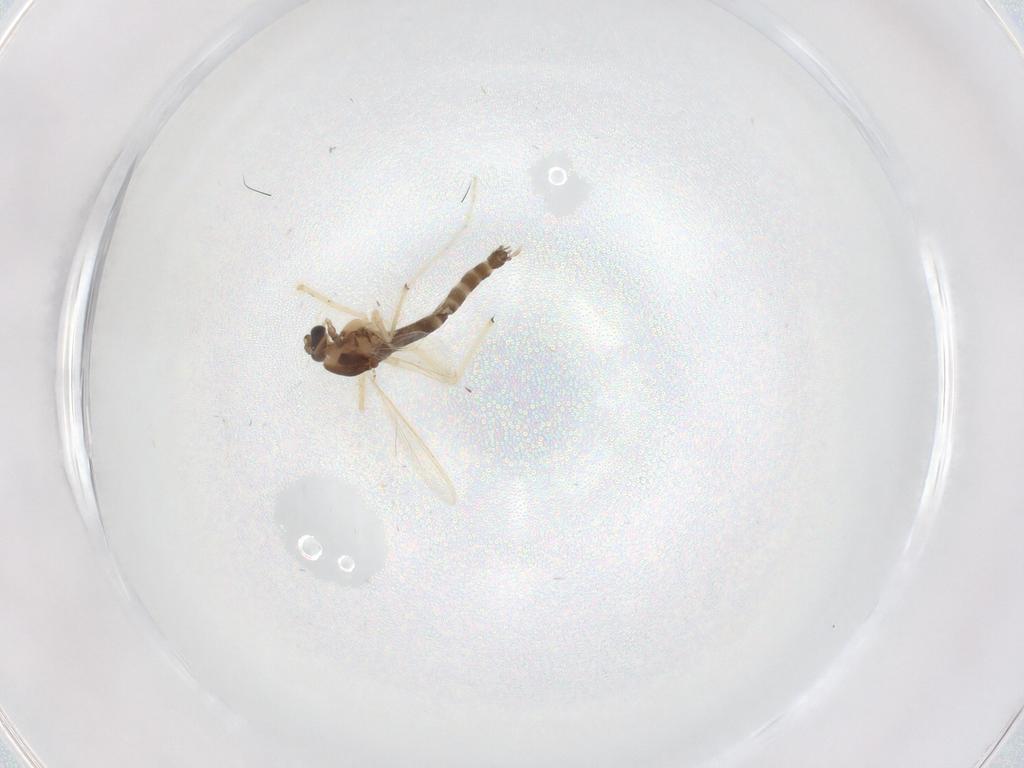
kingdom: Animalia
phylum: Arthropoda
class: Insecta
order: Diptera
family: Chironomidae
